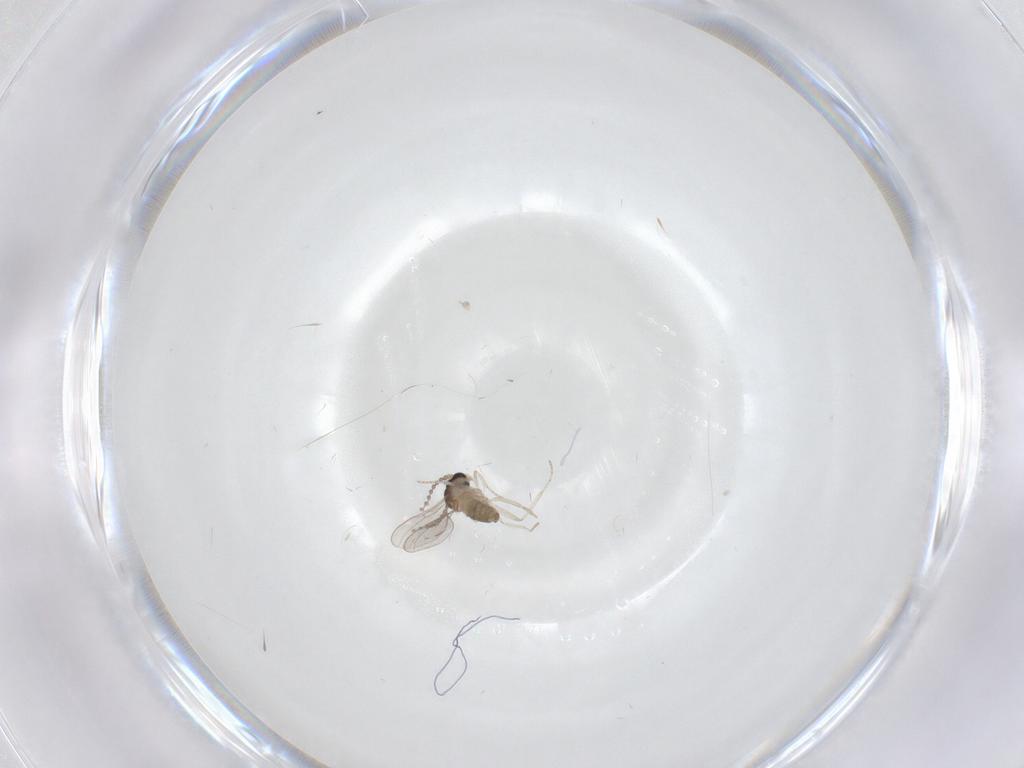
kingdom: Animalia
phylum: Arthropoda
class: Insecta
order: Diptera
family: Cecidomyiidae
